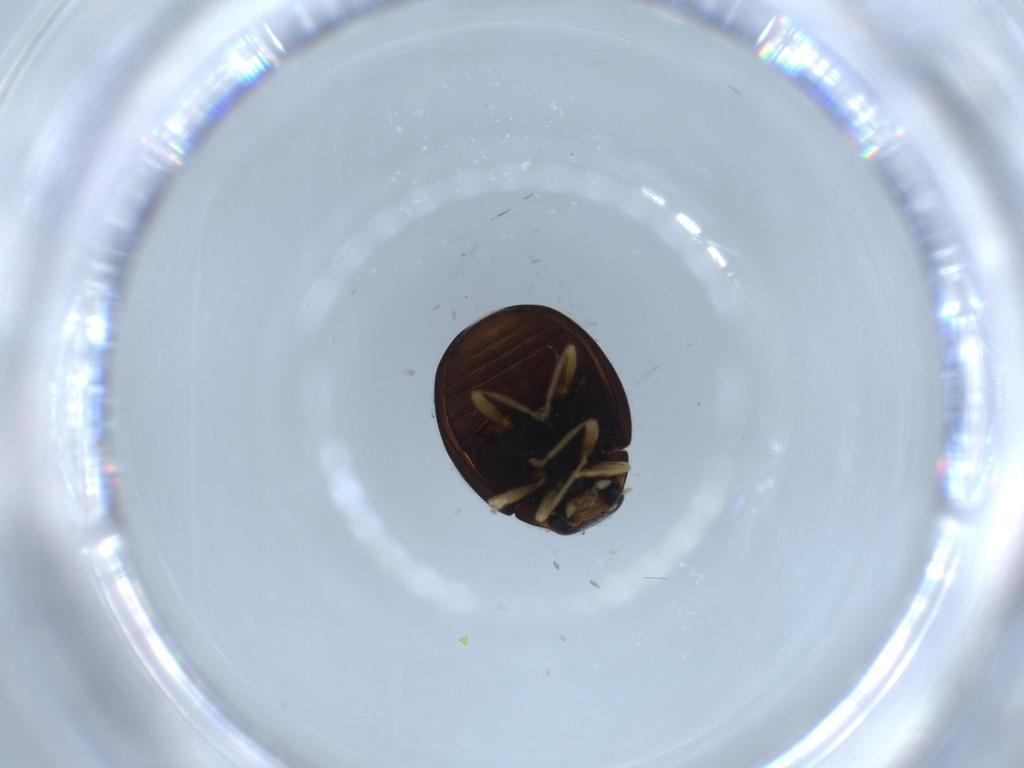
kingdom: Animalia
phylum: Arthropoda
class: Insecta
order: Coleoptera
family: Coccinellidae
